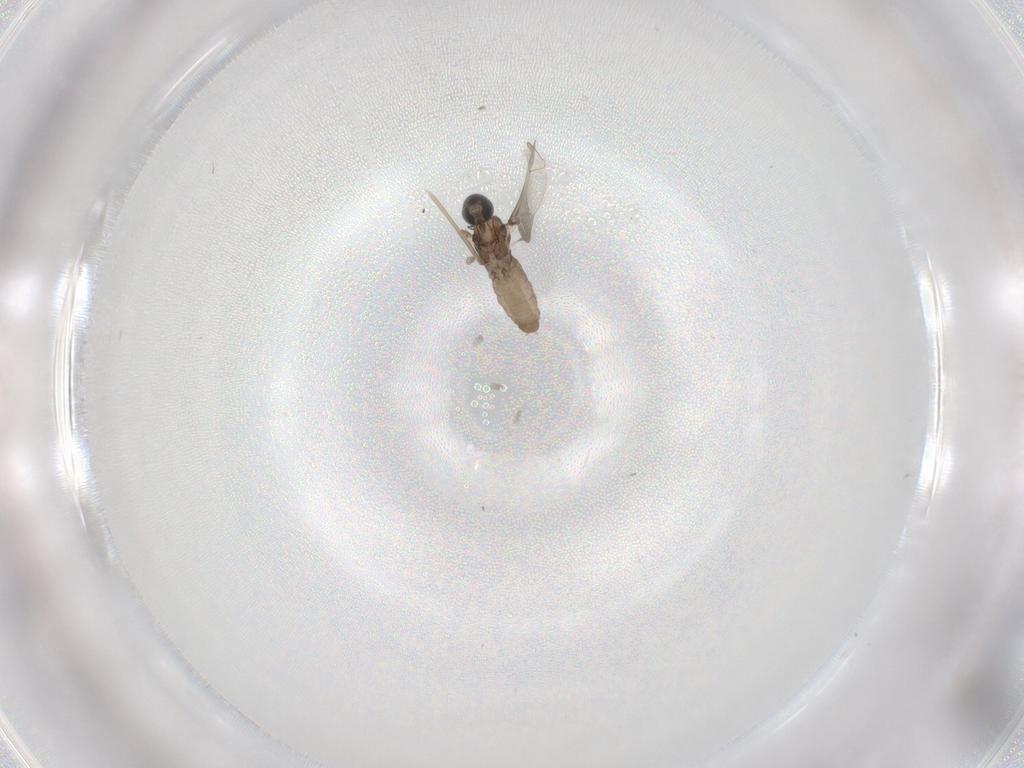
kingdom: Animalia
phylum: Arthropoda
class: Insecta
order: Diptera
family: Cecidomyiidae
